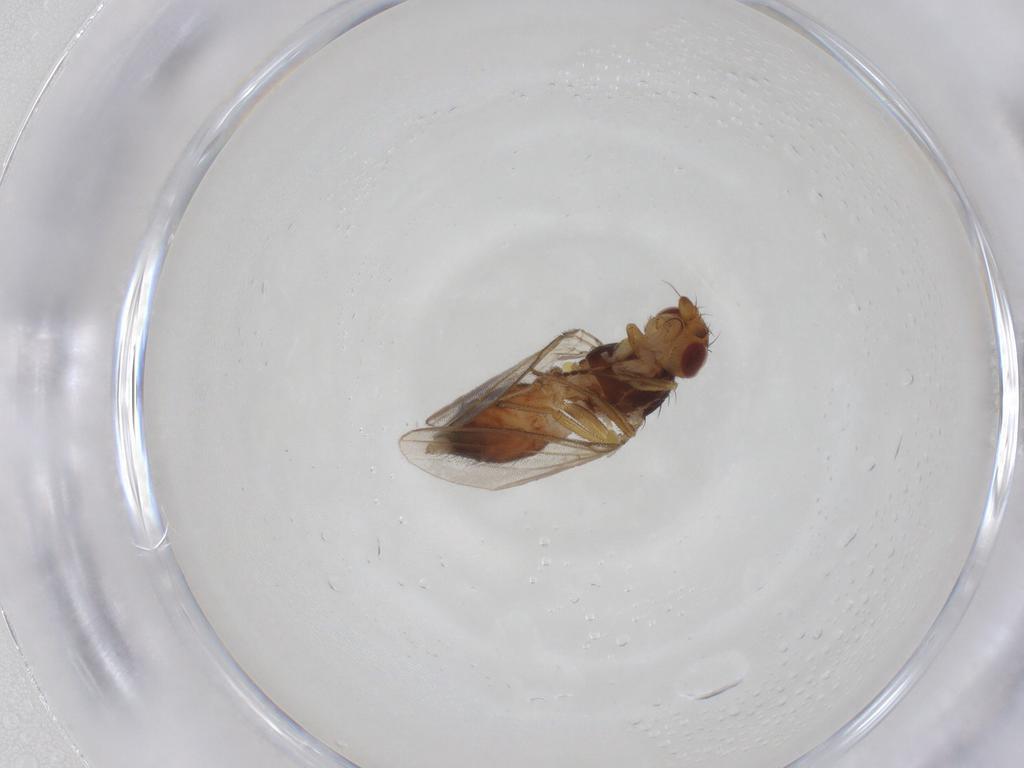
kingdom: Animalia
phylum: Arthropoda
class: Insecta
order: Diptera
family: Milichiidae
